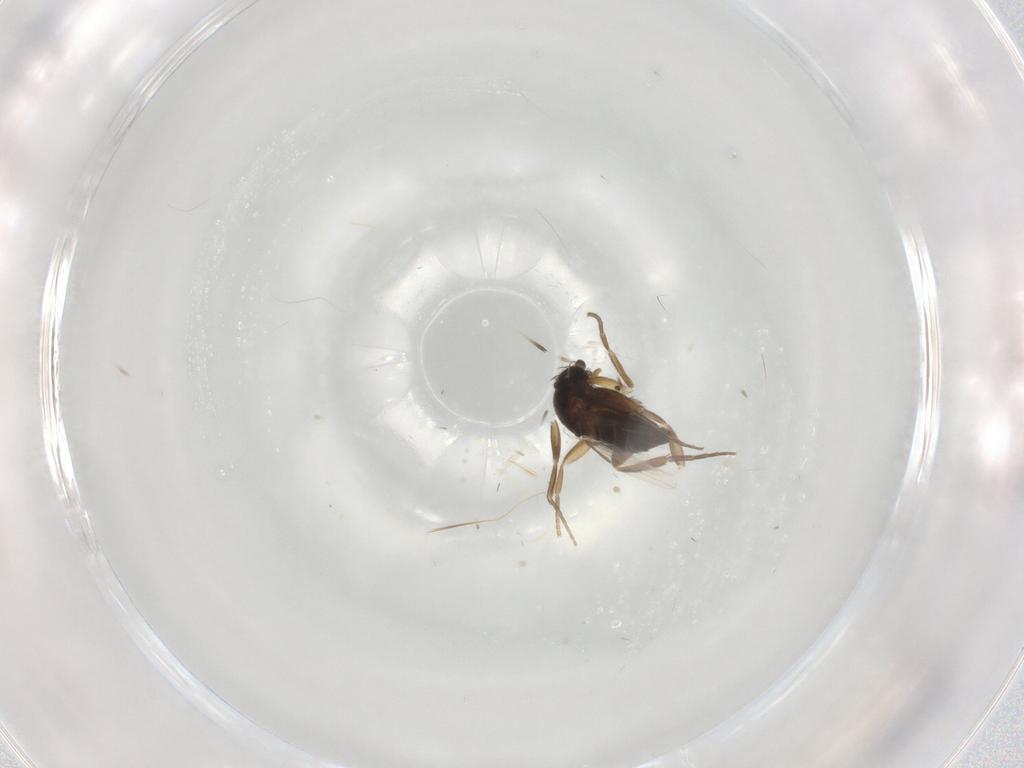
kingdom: Animalia
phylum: Arthropoda
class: Insecta
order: Diptera
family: Phoridae
